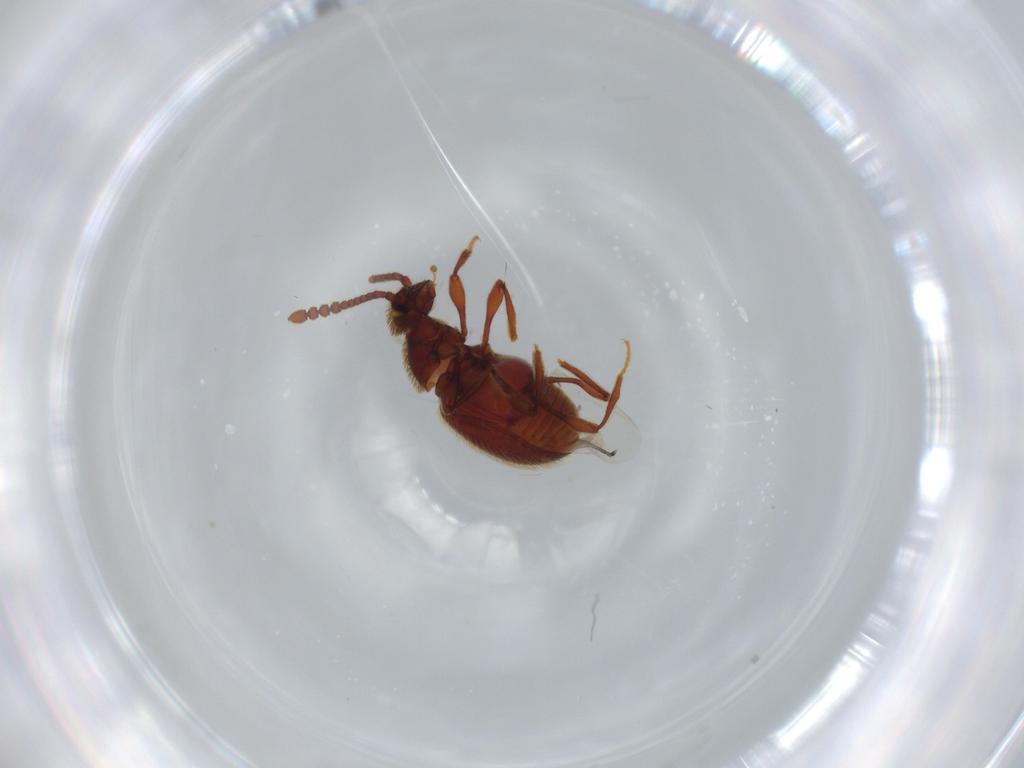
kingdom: Animalia
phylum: Arthropoda
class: Insecta
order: Coleoptera
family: Staphylinidae
